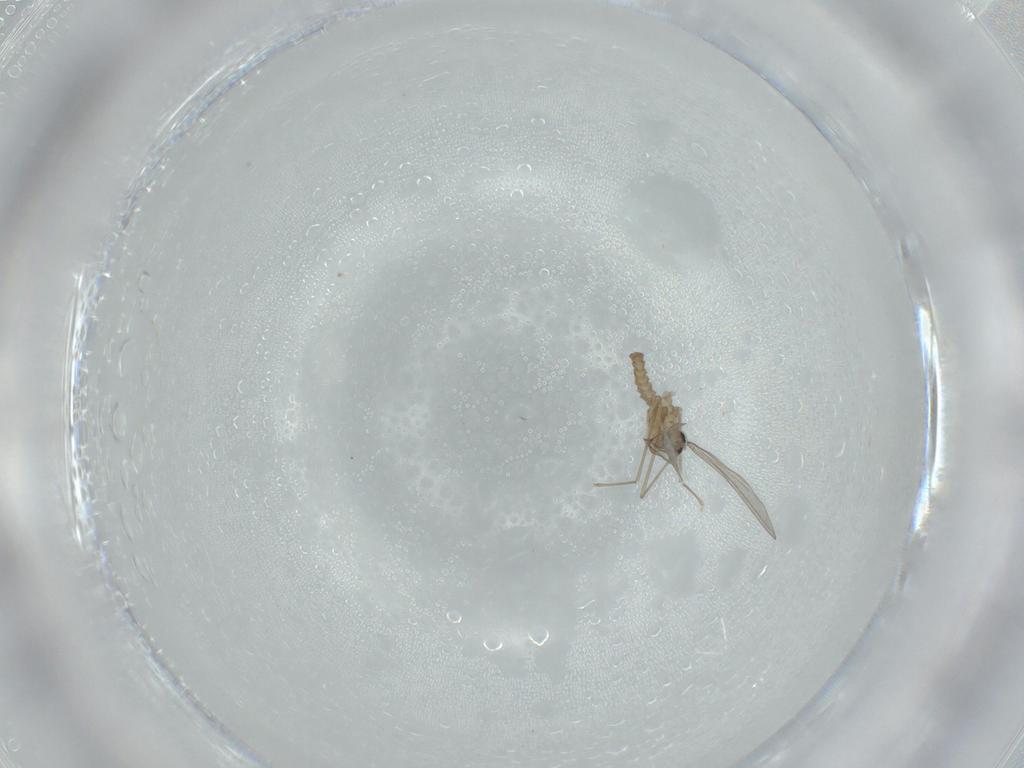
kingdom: Animalia
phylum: Arthropoda
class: Insecta
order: Diptera
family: Cecidomyiidae
